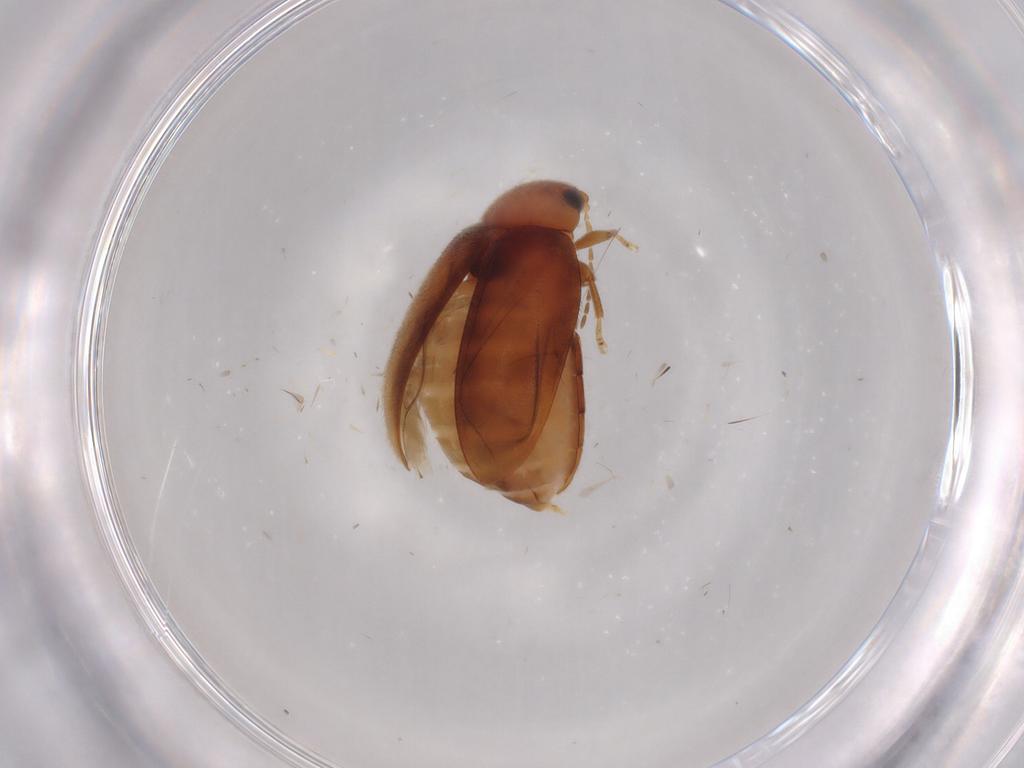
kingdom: Animalia
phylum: Arthropoda
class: Insecta
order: Coleoptera
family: Scirtidae
